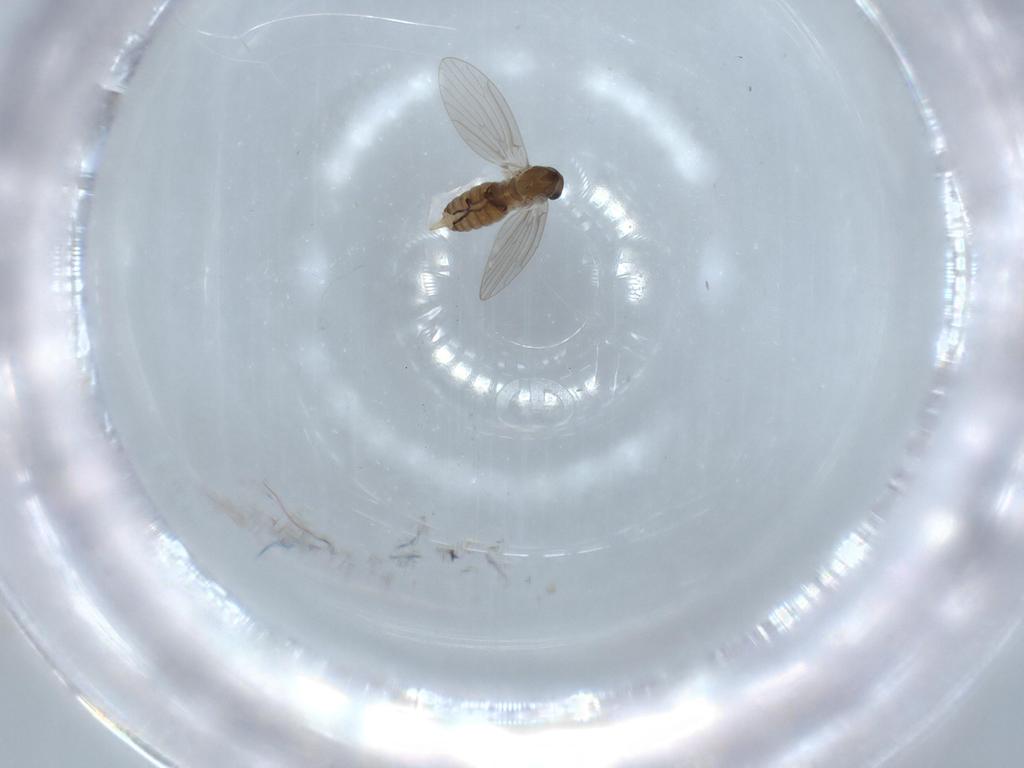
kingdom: Animalia
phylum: Arthropoda
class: Insecta
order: Diptera
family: Psychodidae
